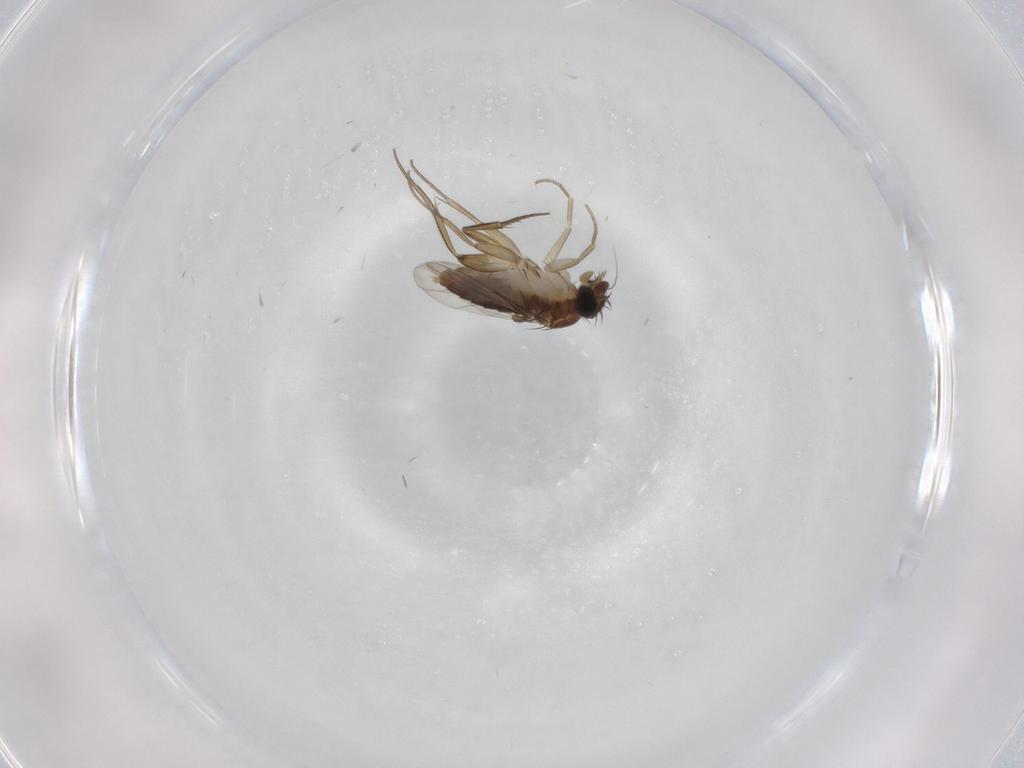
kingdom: Animalia
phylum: Arthropoda
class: Insecta
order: Diptera
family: Phoridae
